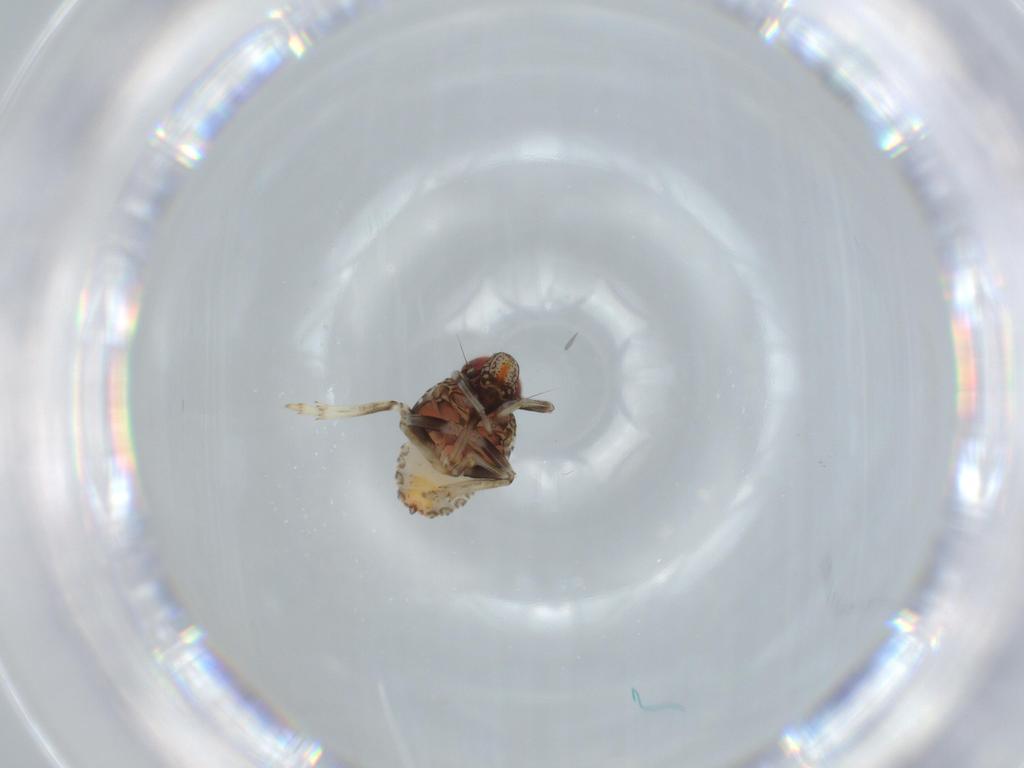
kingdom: Animalia
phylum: Arthropoda
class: Insecta
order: Hemiptera
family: Issidae
